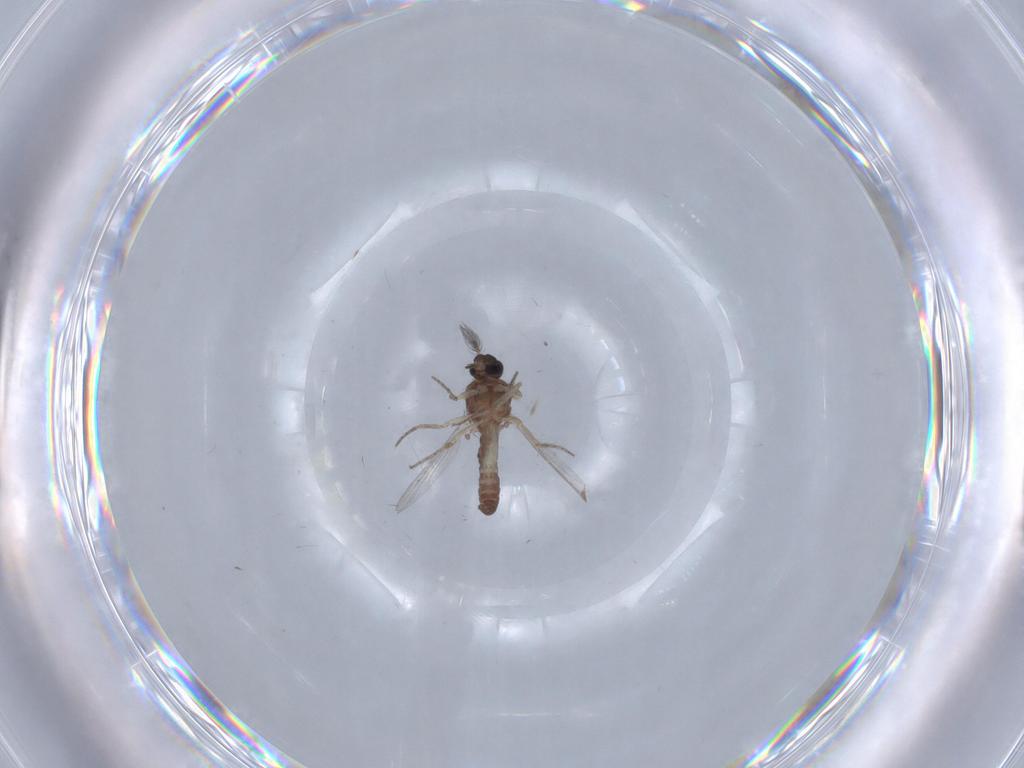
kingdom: Animalia
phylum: Arthropoda
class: Insecta
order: Diptera
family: Ceratopogonidae
